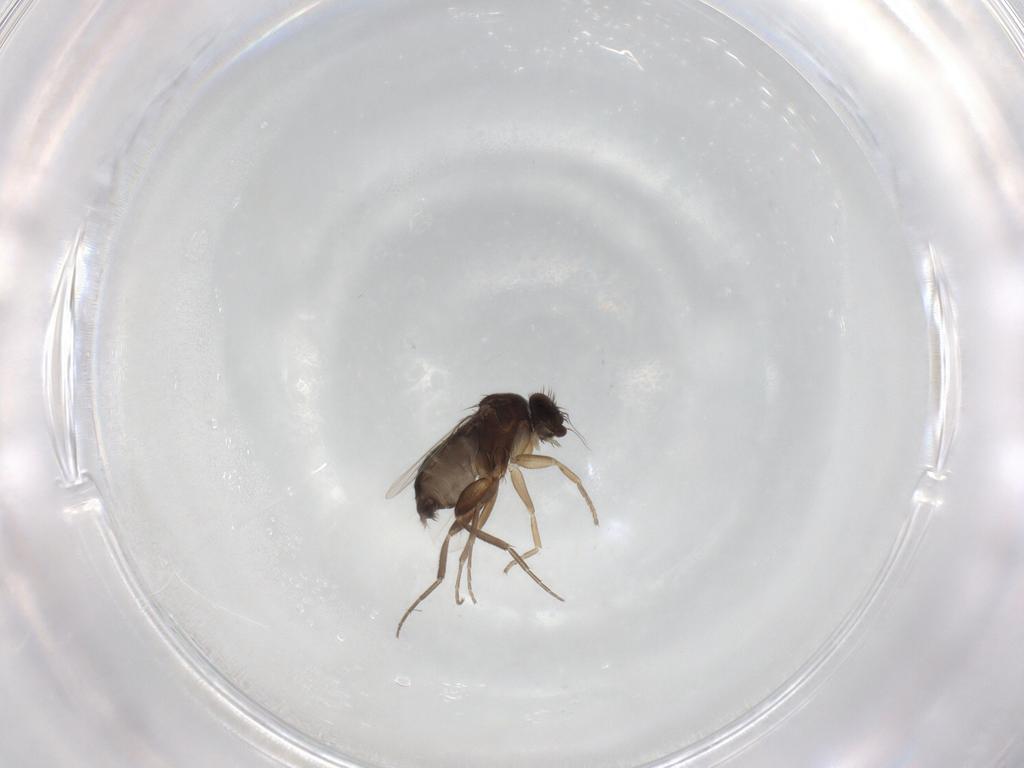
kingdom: Animalia
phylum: Arthropoda
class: Insecta
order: Diptera
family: Phoridae
